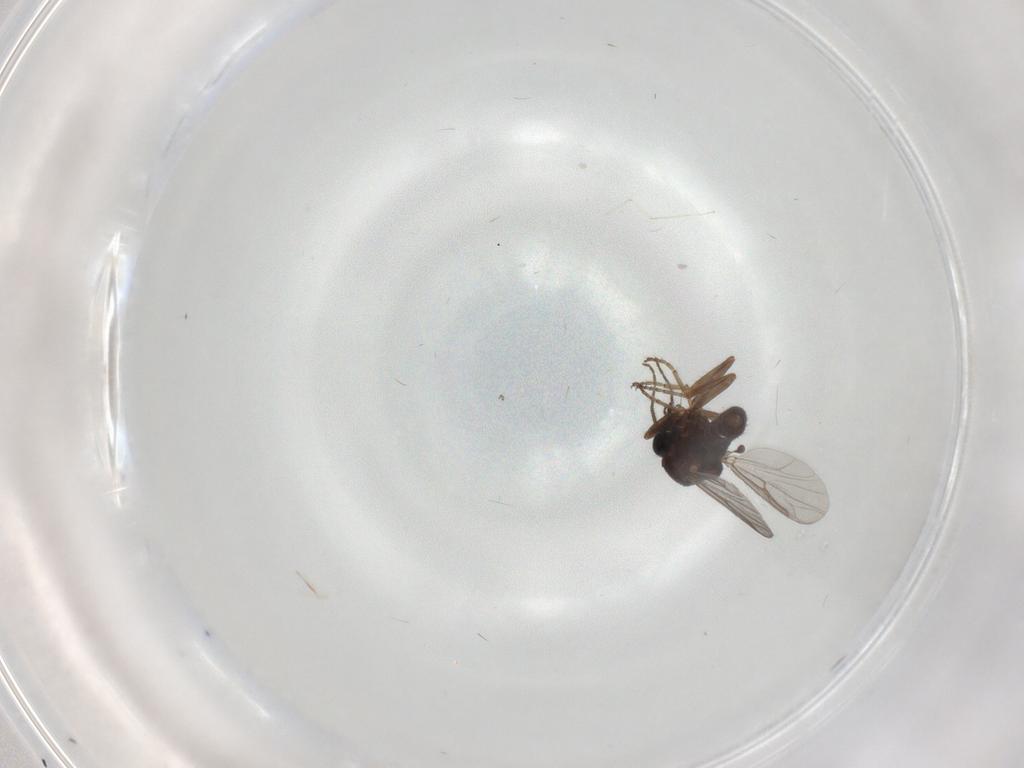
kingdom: Animalia
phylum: Arthropoda
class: Insecta
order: Diptera
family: Ceratopogonidae
